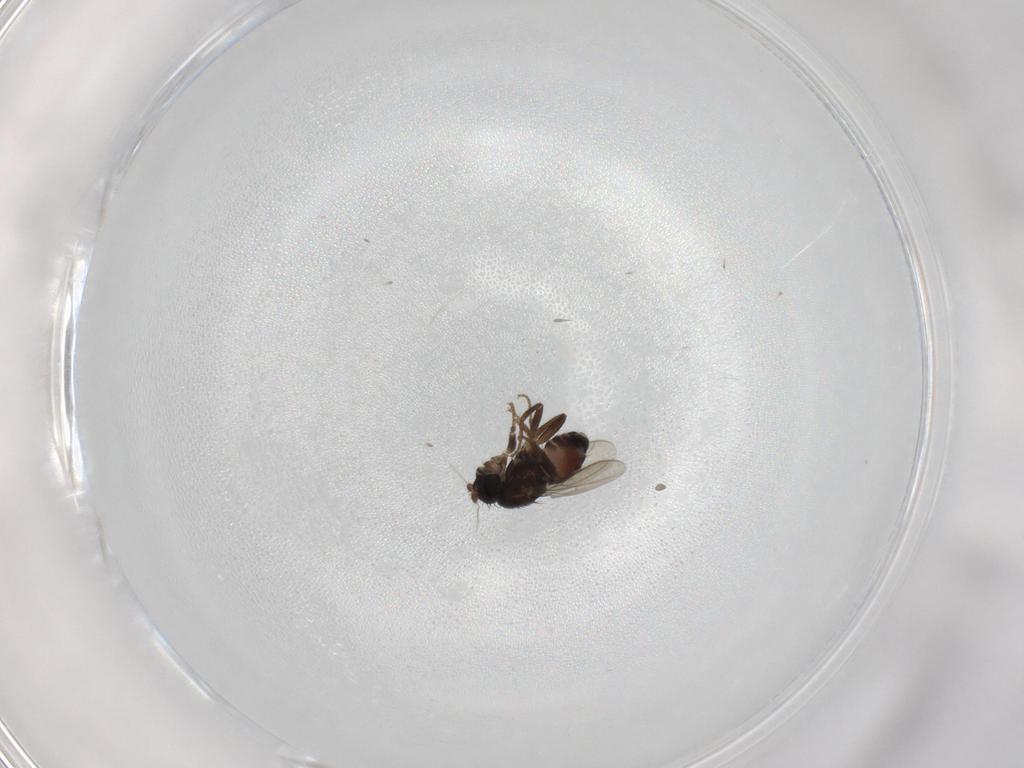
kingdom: Animalia
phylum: Arthropoda
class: Insecta
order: Diptera
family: Sphaeroceridae
